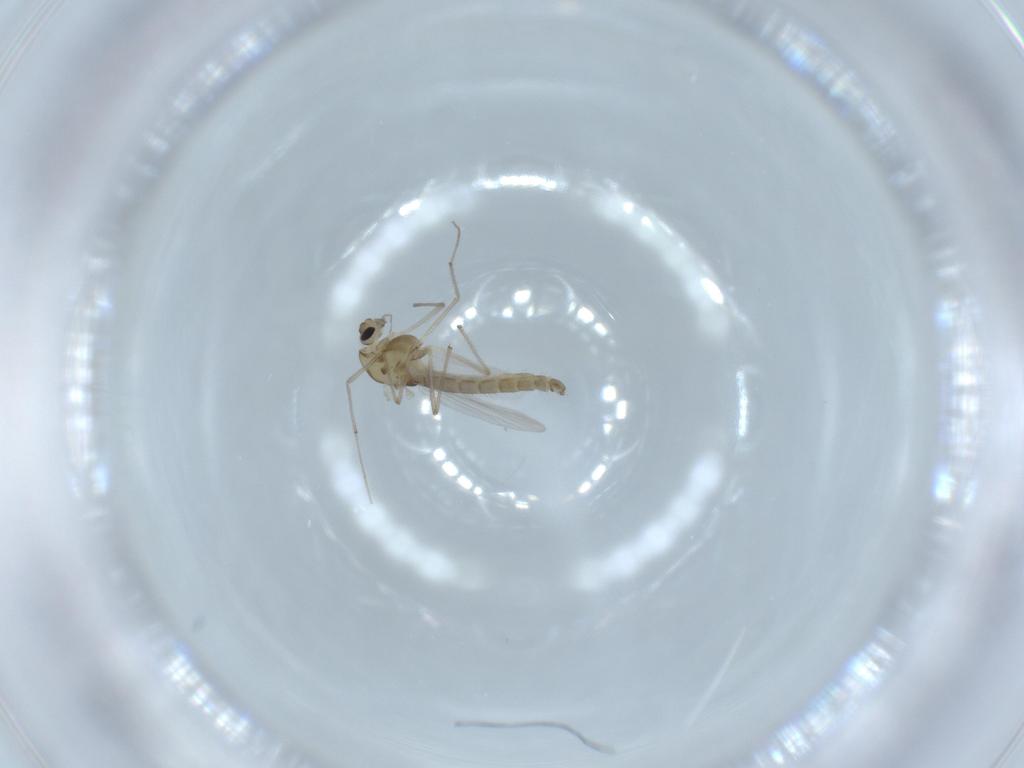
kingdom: Animalia
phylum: Arthropoda
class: Insecta
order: Diptera
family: Chironomidae
